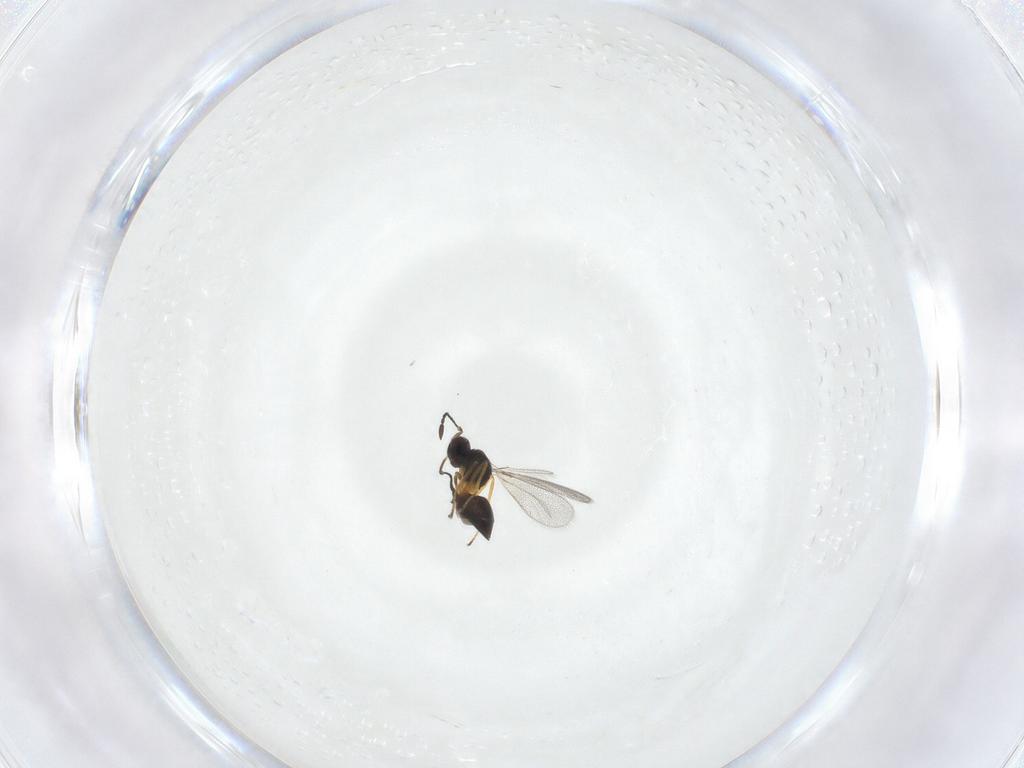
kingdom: Animalia
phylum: Arthropoda
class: Insecta
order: Hymenoptera
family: Mymaridae
